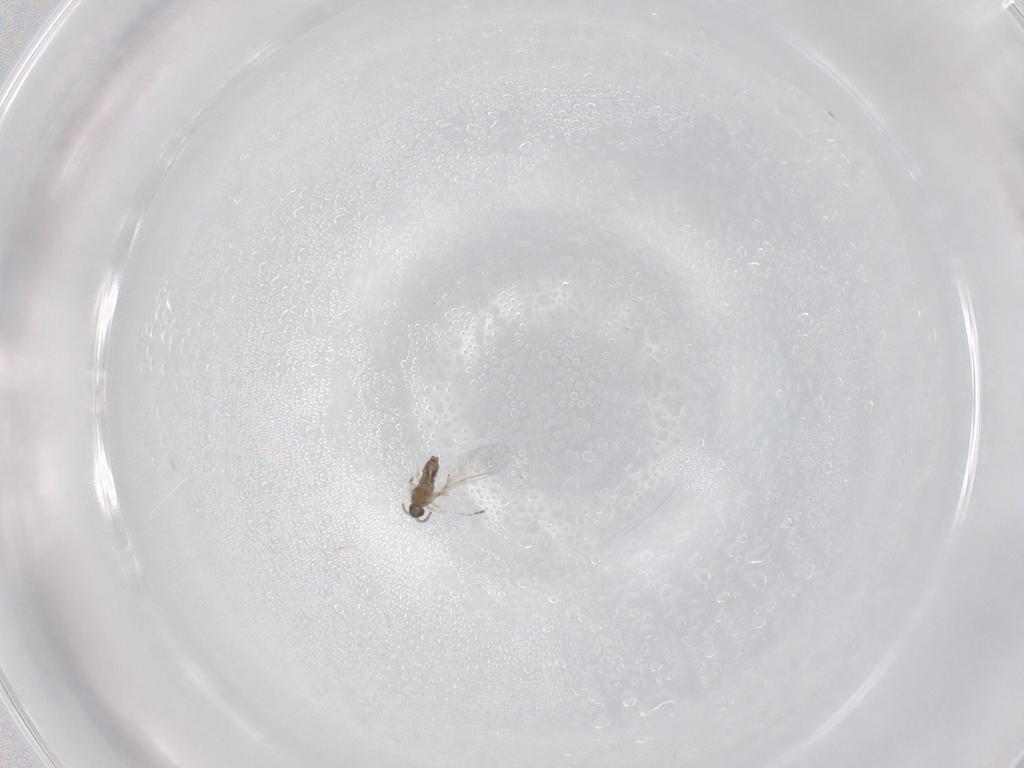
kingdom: Animalia
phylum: Arthropoda
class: Insecta
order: Diptera
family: Cecidomyiidae
